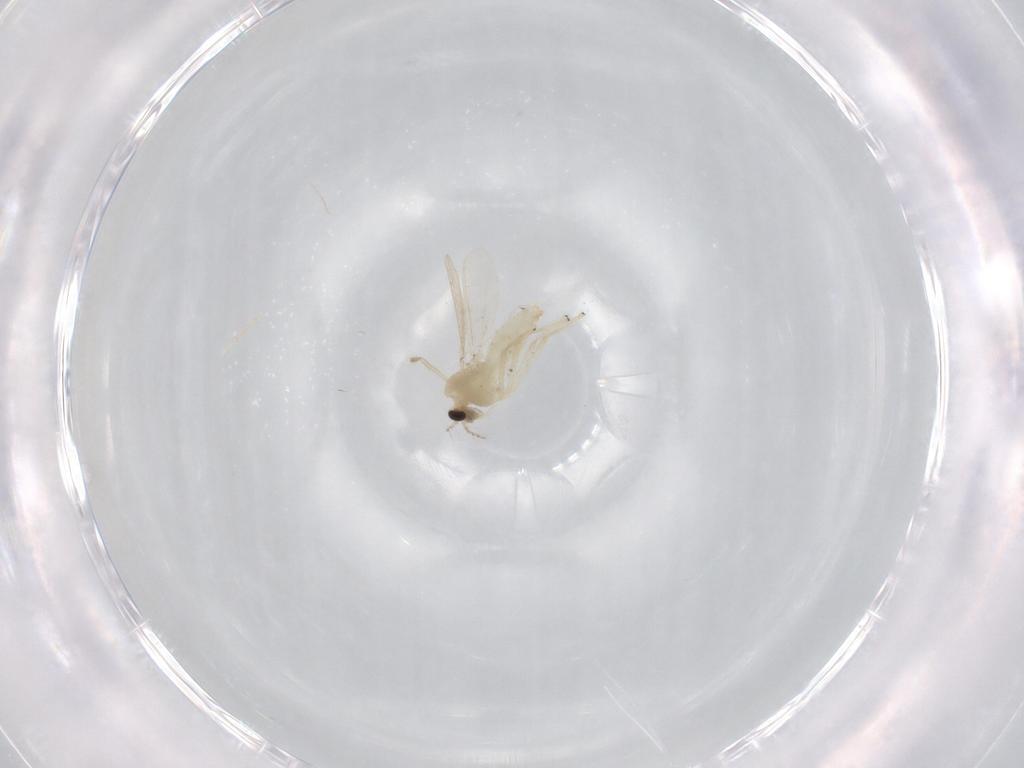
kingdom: Animalia
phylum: Arthropoda
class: Insecta
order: Diptera
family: Chironomidae
